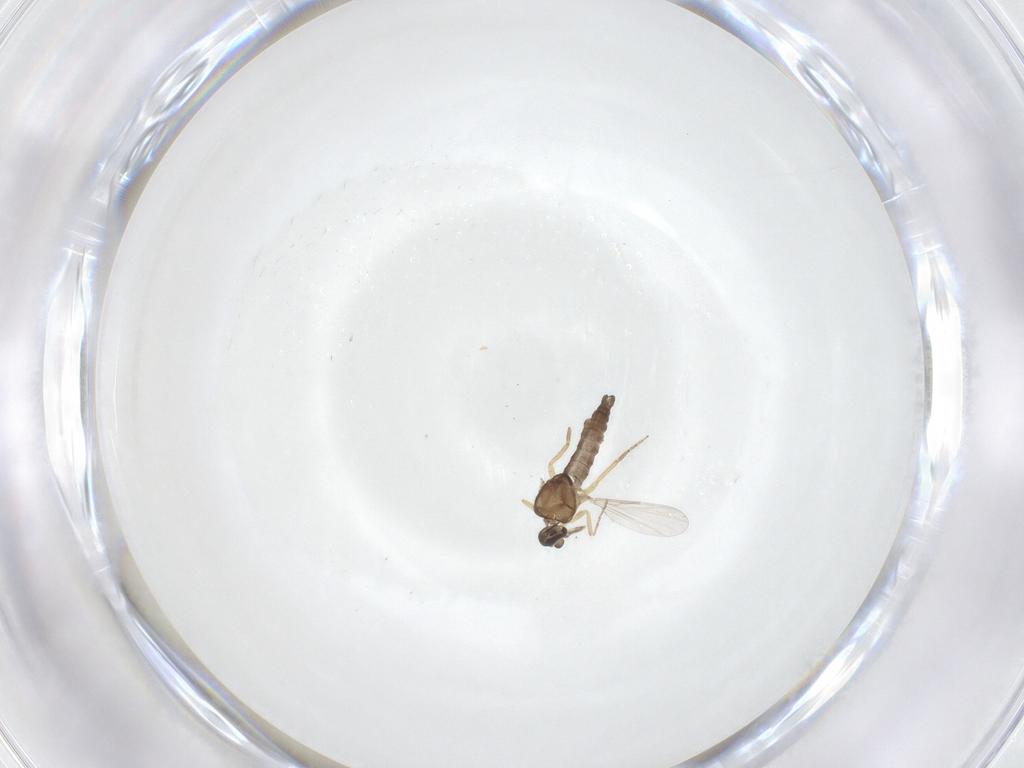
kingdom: Animalia
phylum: Arthropoda
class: Insecta
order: Diptera
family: Ceratopogonidae
